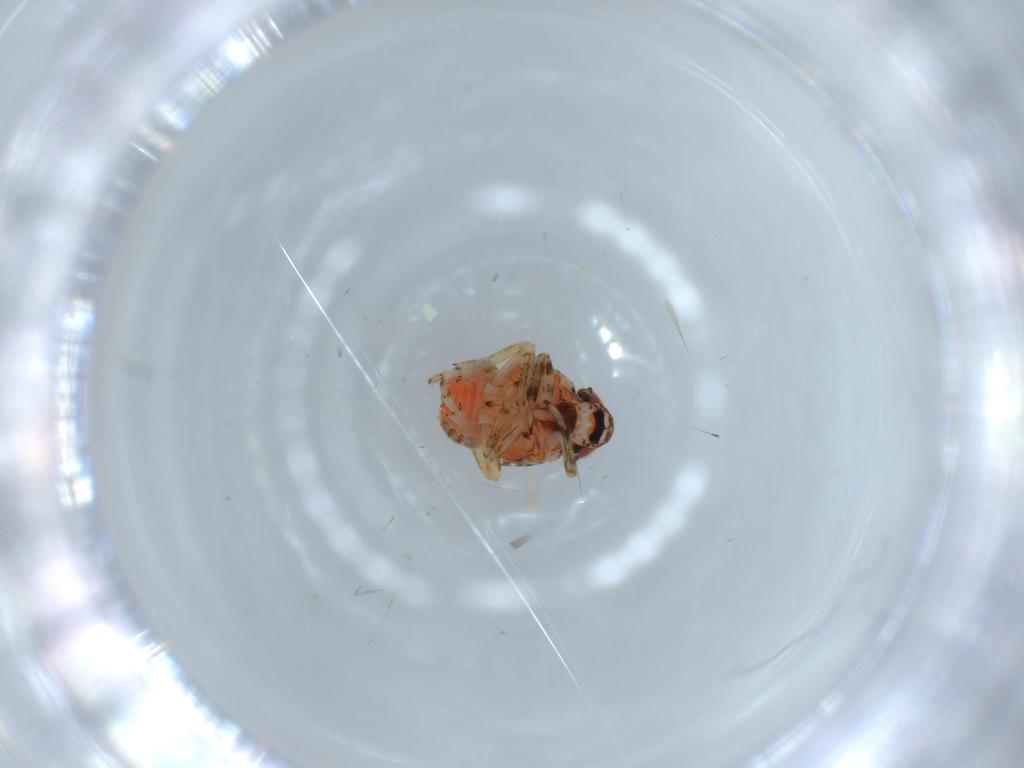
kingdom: Animalia
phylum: Arthropoda
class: Insecta
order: Hemiptera
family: Issidae
